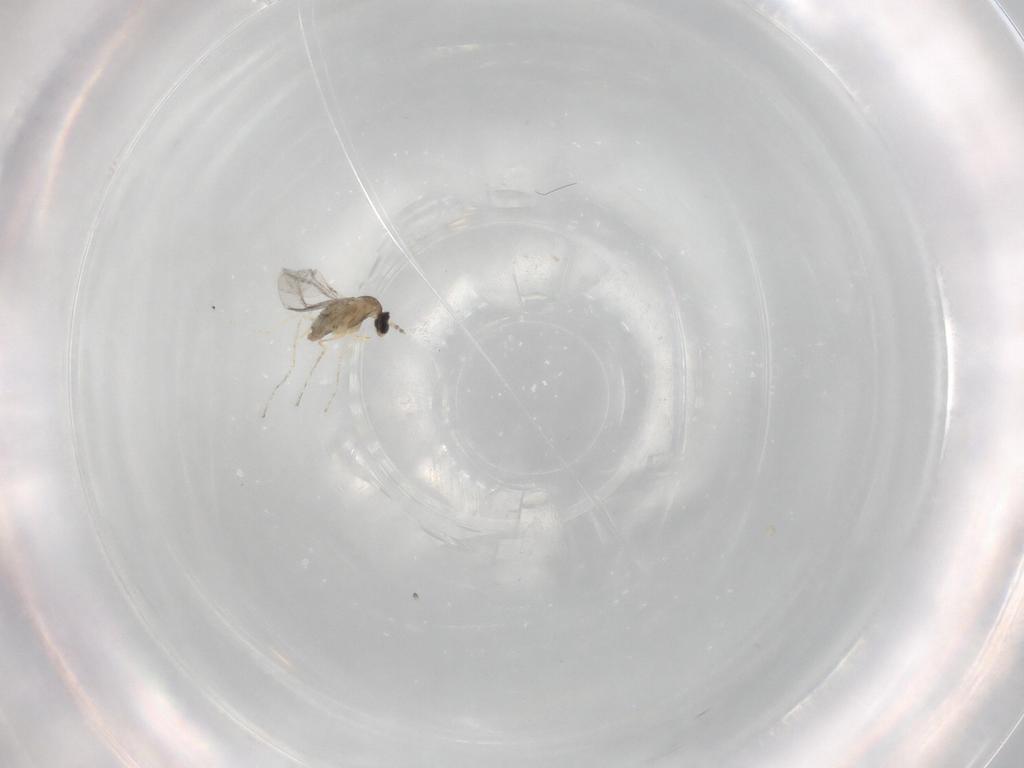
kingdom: Animalia
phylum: Arthropoda
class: Insecta
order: Diptera
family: Cecidomyiidae
